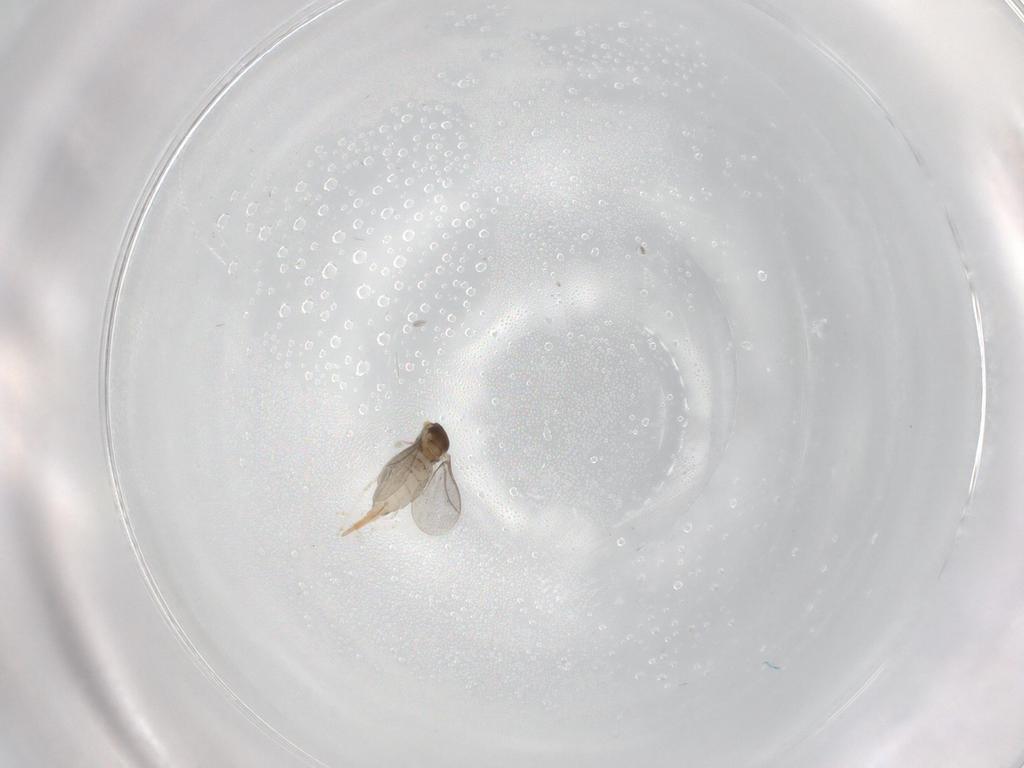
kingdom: Animalia
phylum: Arthropoda
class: Insecta
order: Diptera
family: Cecidomyiidae
